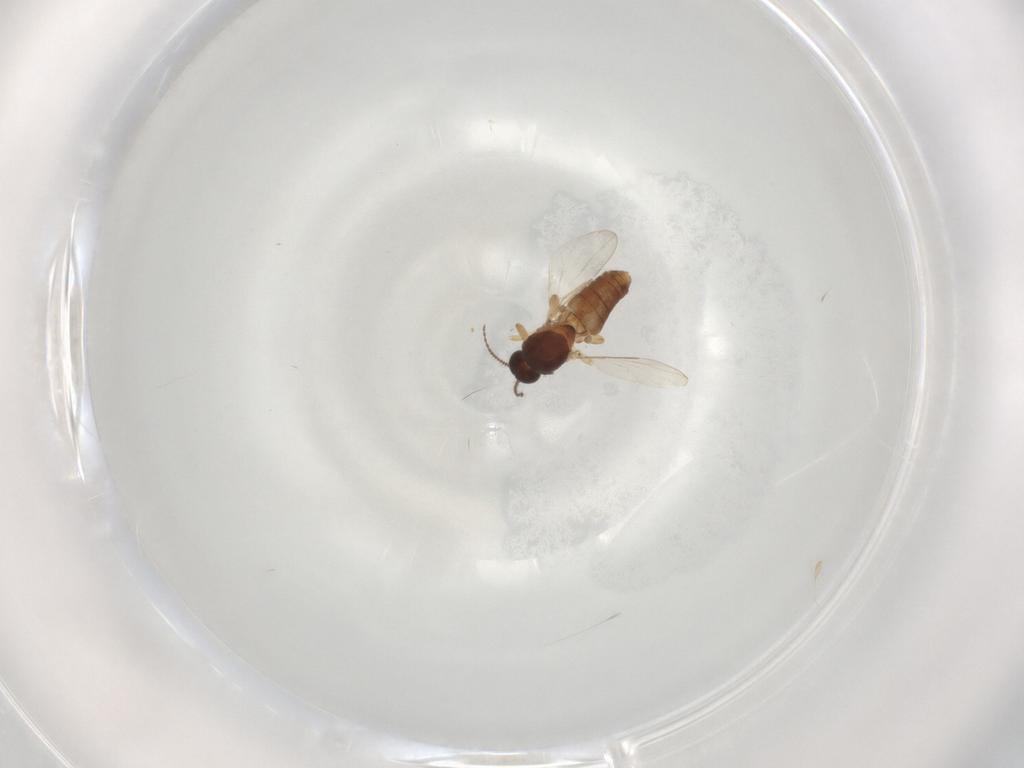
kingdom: Animalia
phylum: Arthropoda
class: Insecta
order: Diptera
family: Ceratopogonidae
